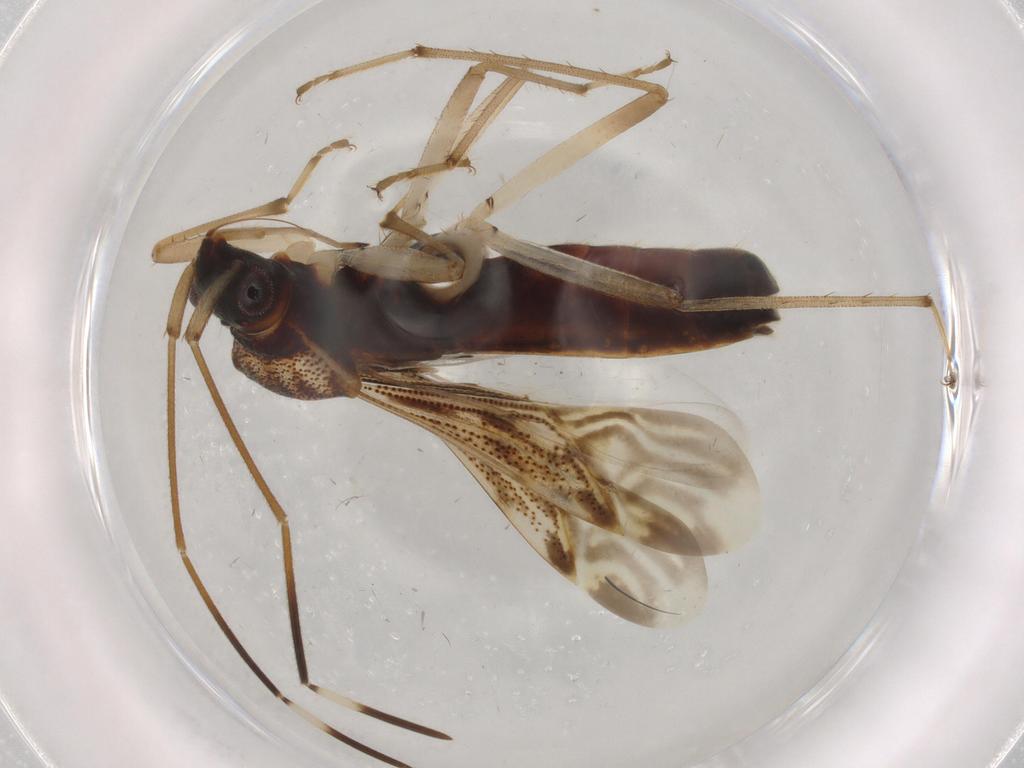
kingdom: Animalia
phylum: Arthropoda
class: Insecta
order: Hemiptera
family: Rhyparochromidae
